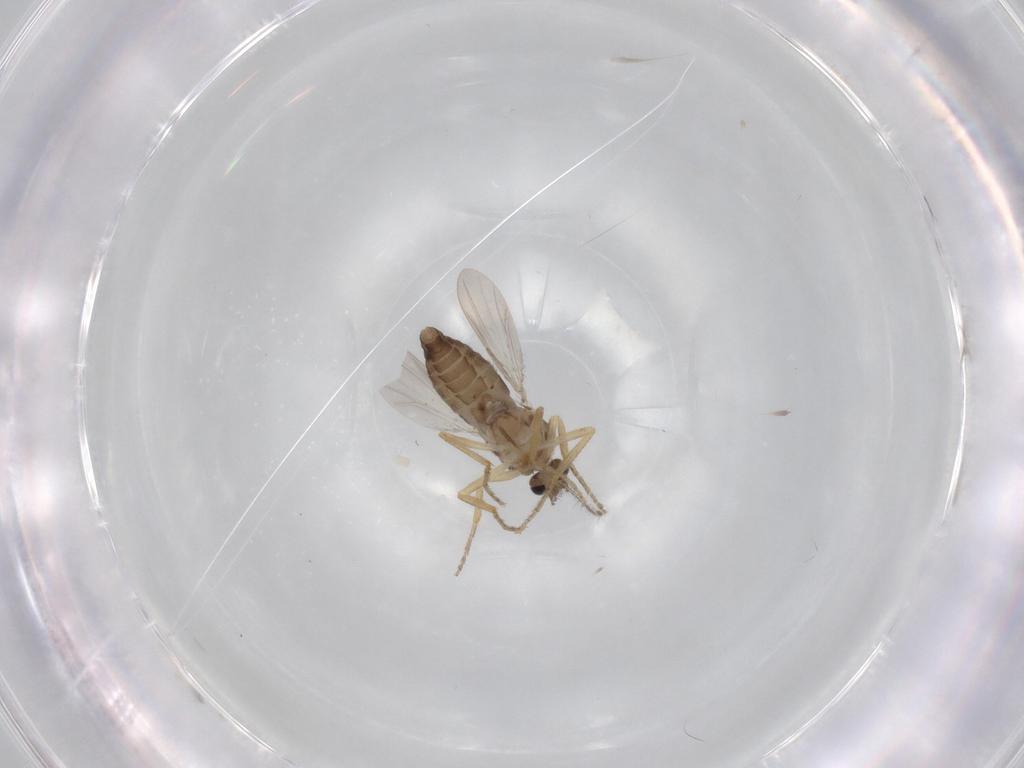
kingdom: Animalia
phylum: Arthropoda
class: Insecta
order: Diptera
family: Ceratopogonidae
